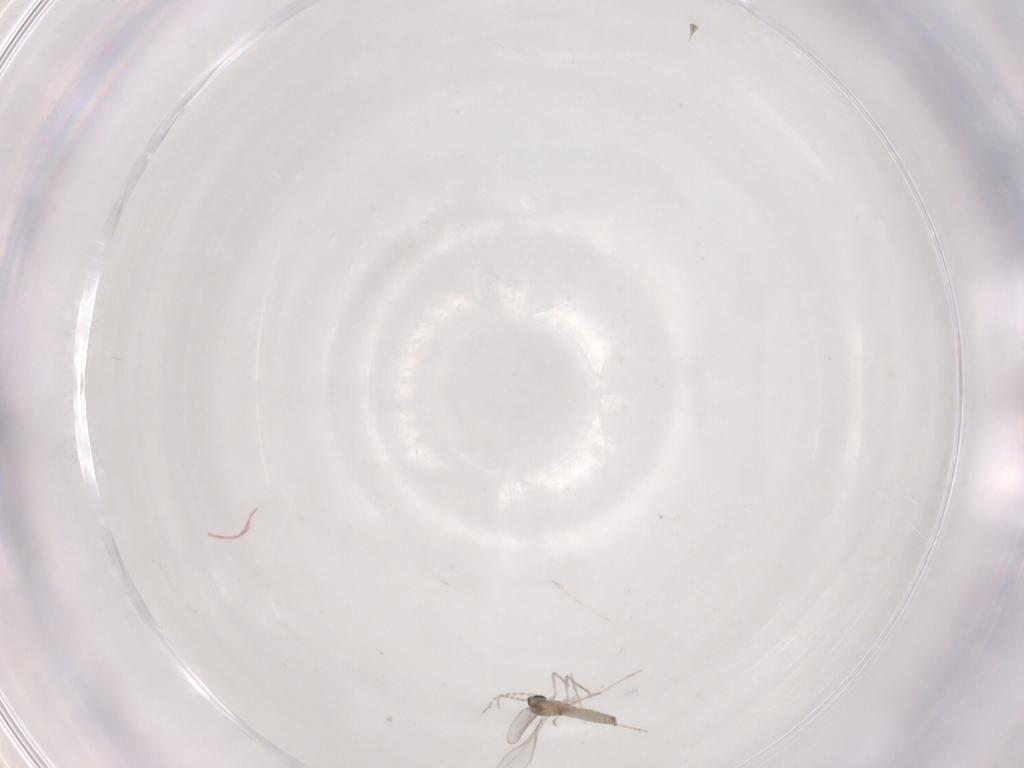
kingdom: Animalia
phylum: Arthropoda
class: Insecta
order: Diptera
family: Cecidomyiidae
